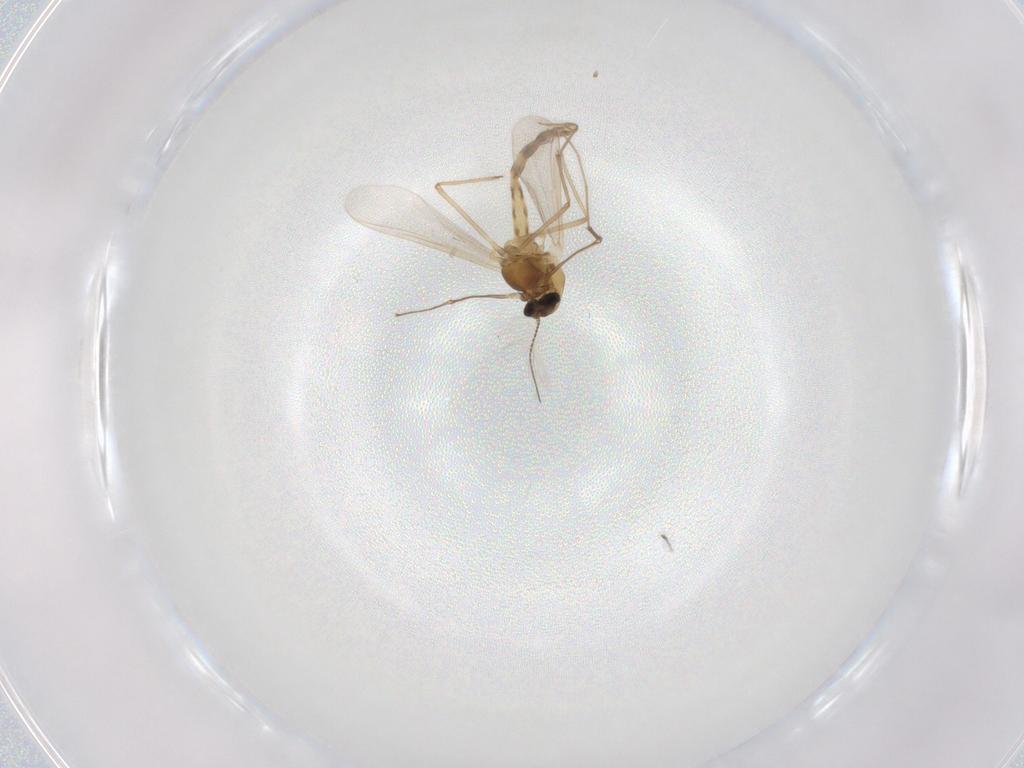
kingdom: Animalia
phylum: Arthropoda
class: Insecta
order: Diptera
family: Chironomidae
